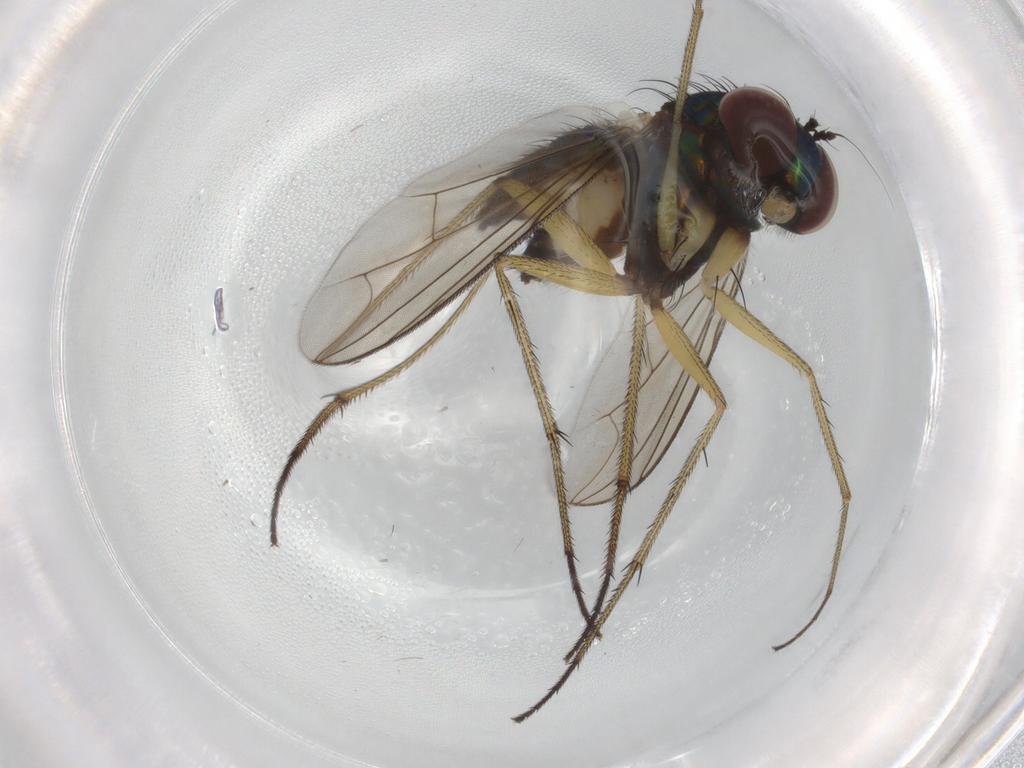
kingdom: Animalia
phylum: Arthropoda
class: Insecta
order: Diptera
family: Dolichopodidae
